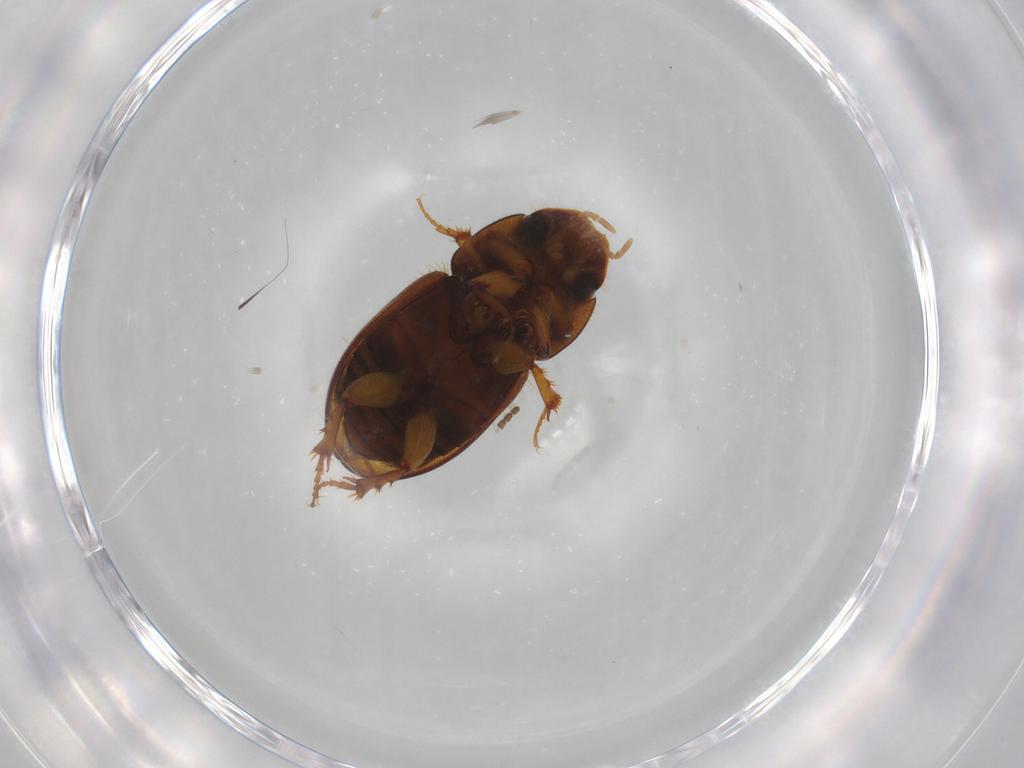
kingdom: Animalia
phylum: Arthropoda
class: Insecta
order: Coleoptera
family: Scarabaeidae
